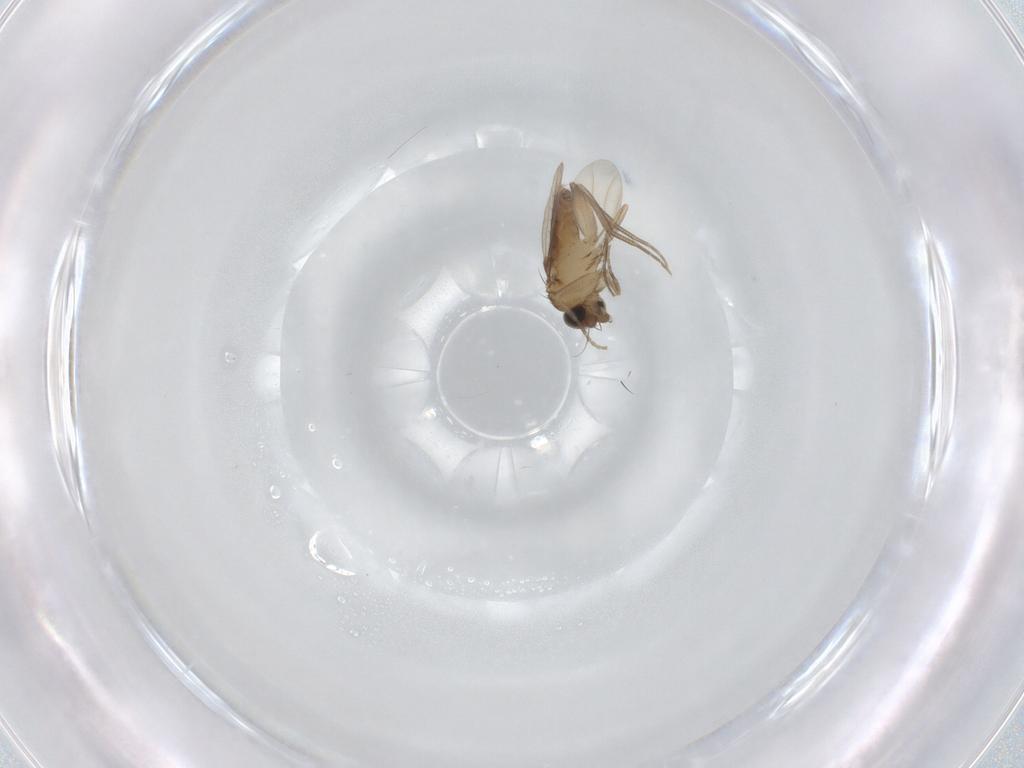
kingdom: Animalia
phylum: Arthropoda
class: Insecta
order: Diptera
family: Phoridae
